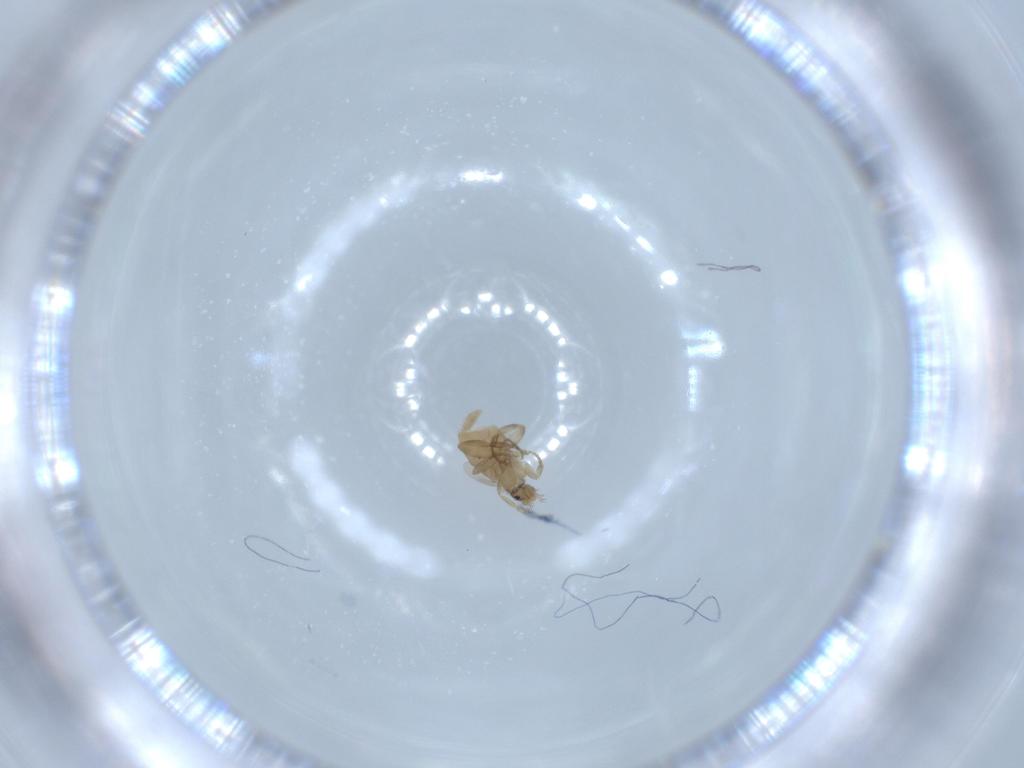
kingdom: Animalia
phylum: Arthropoda
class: Insecta
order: Diptera
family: Phoridae
